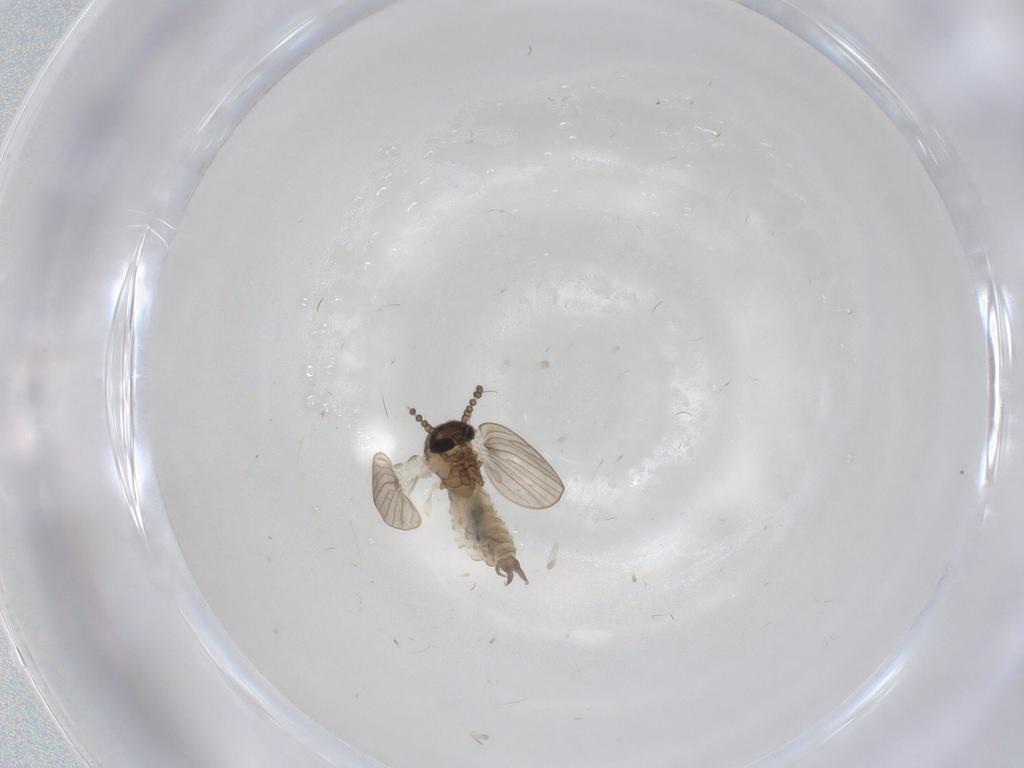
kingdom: Animalia
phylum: Arthropoda
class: Insecta
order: Diptera
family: Psychodidae
